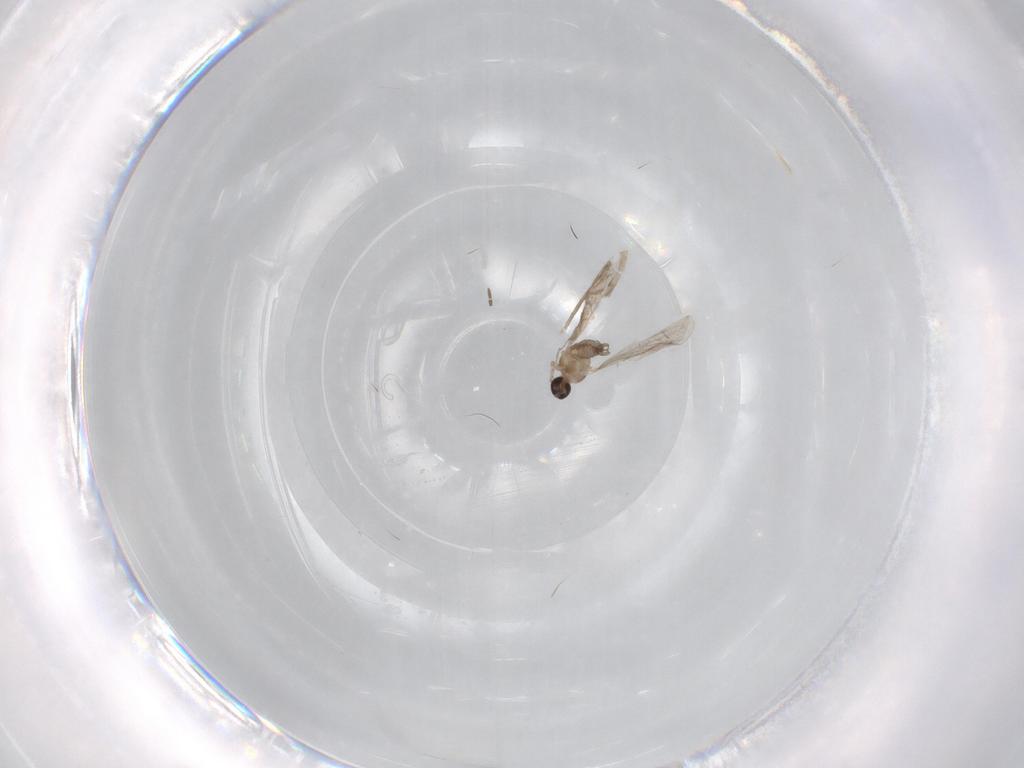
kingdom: Animalia
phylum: Arthropoda
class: Insecta
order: Diptera
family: Cecidomyiidae
